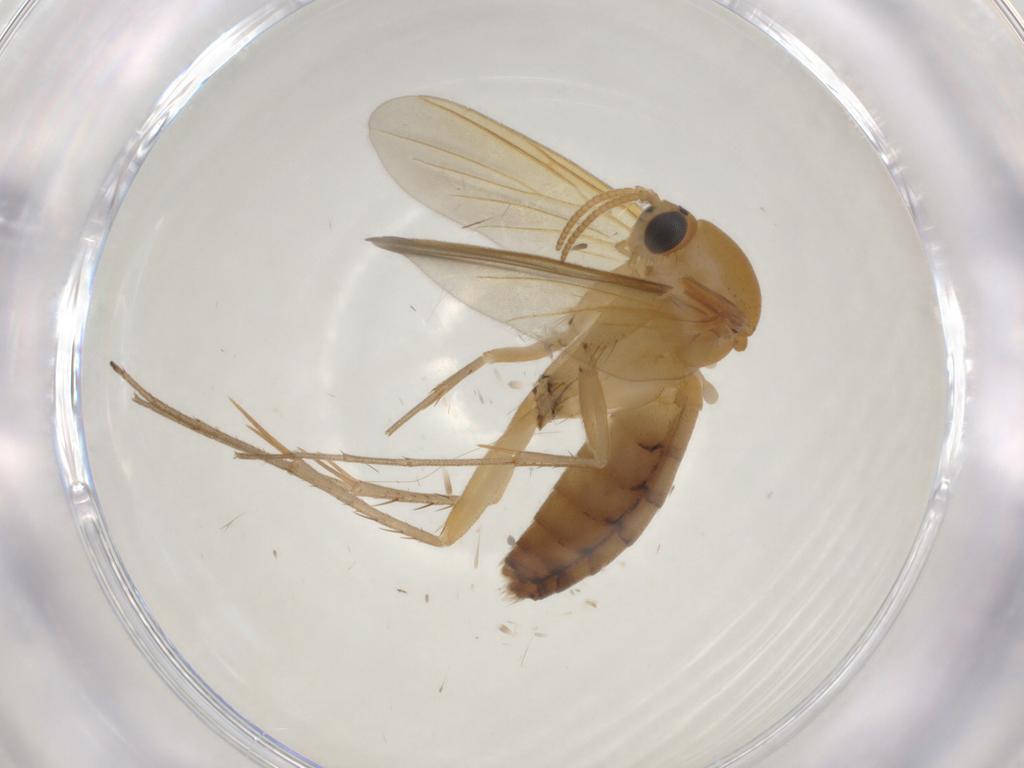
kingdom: Animalia
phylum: Arthropoda
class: Insecta
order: Diptera
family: Mycetophilidae
